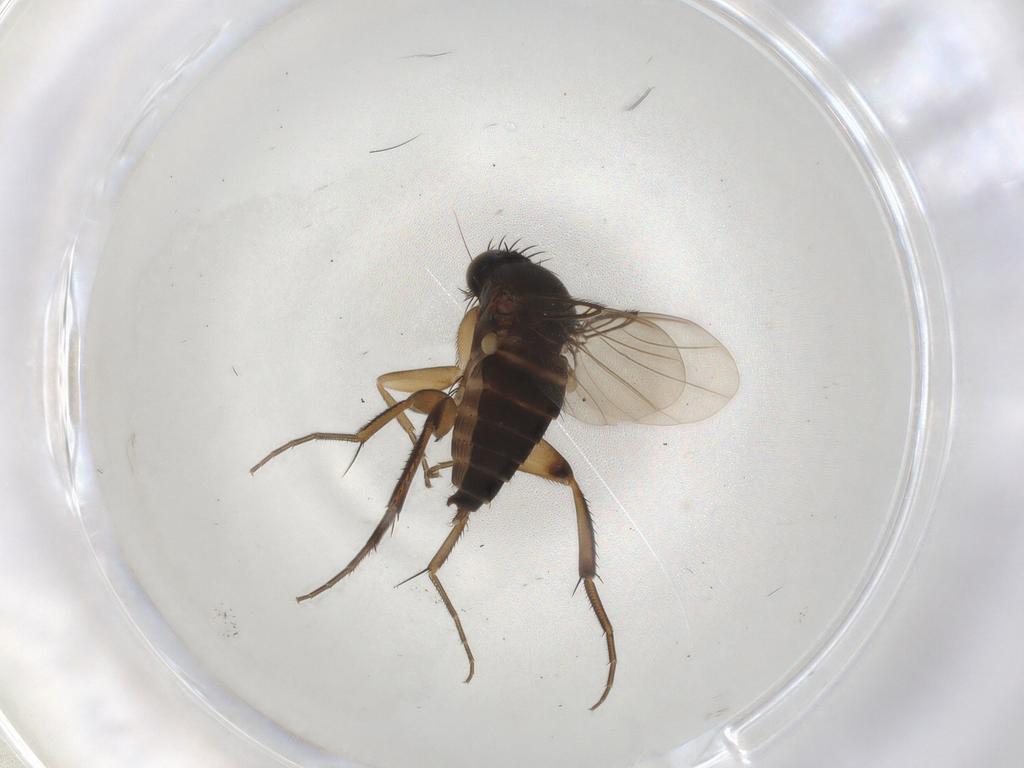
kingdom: Animalia
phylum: Arthropoda
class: Insecta
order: Diptera
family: Phoridae
